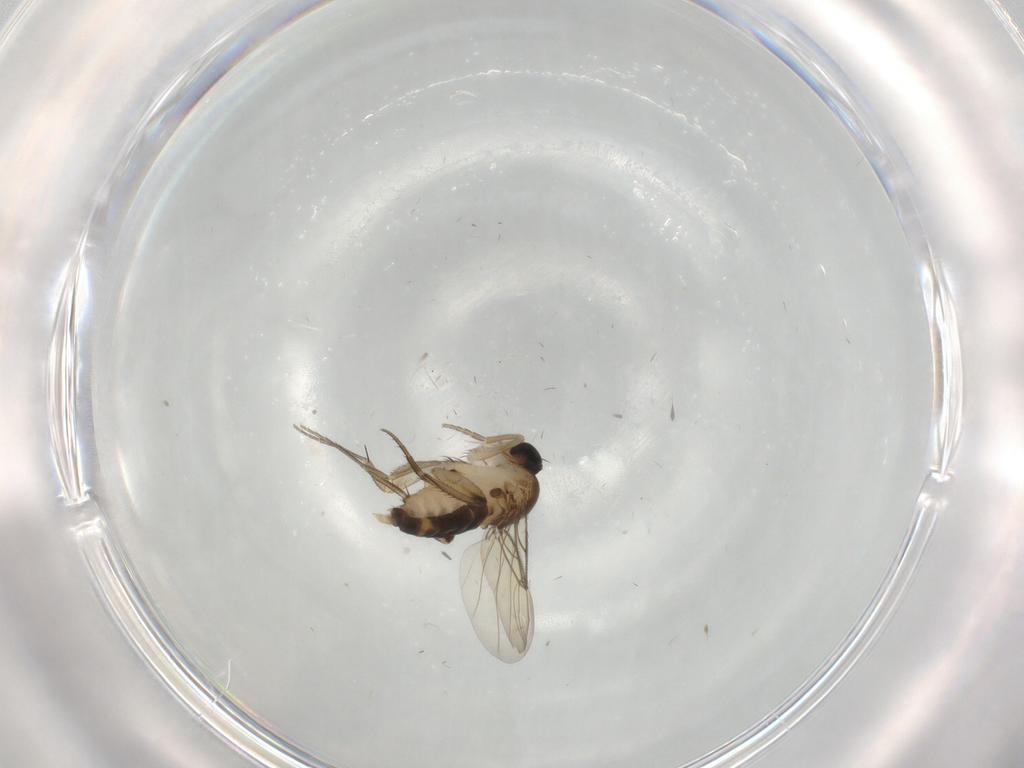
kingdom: Animalia
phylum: Arthropoda
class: Insecta
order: Diptera
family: Phoridae
